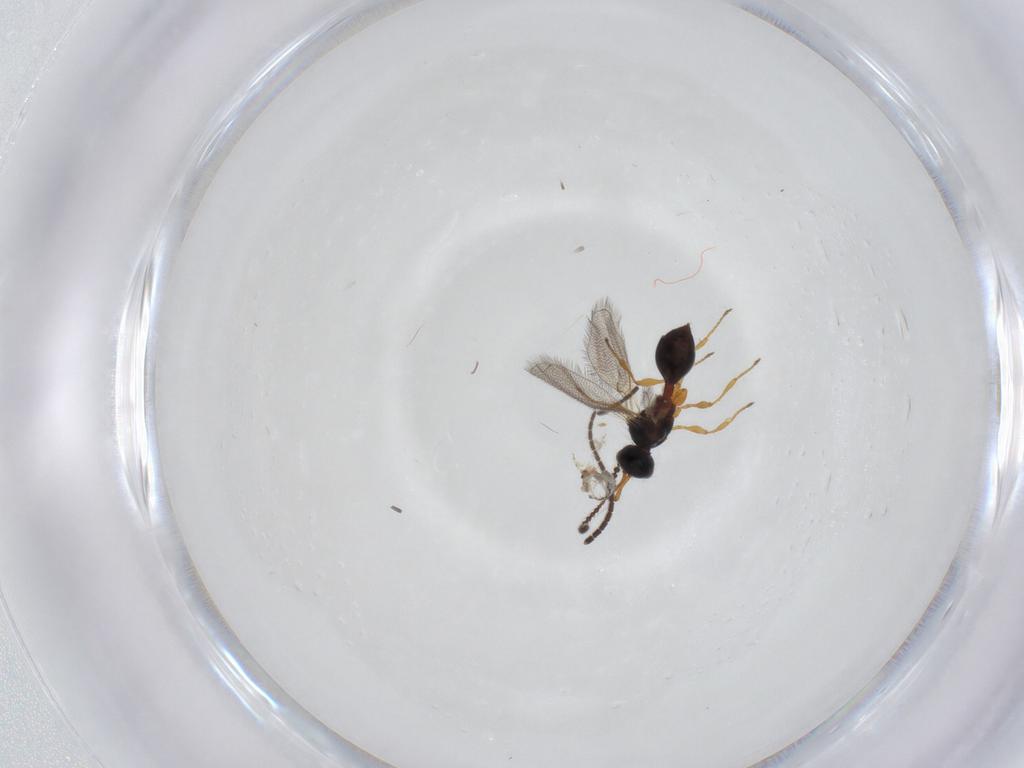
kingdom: Animalia
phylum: Arthropoda
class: Insecta
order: Hymenoptera
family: Diapriidae
